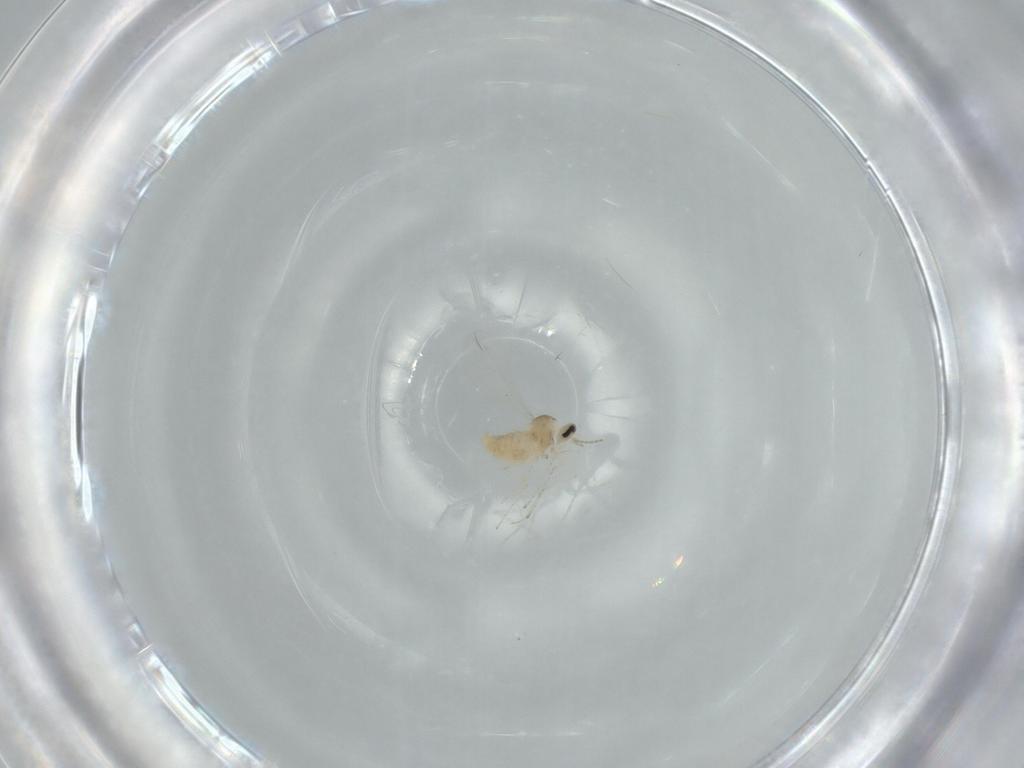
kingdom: Animalia
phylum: Arthropoda
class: Insecta
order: Diptera
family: Cecidomyiidae
